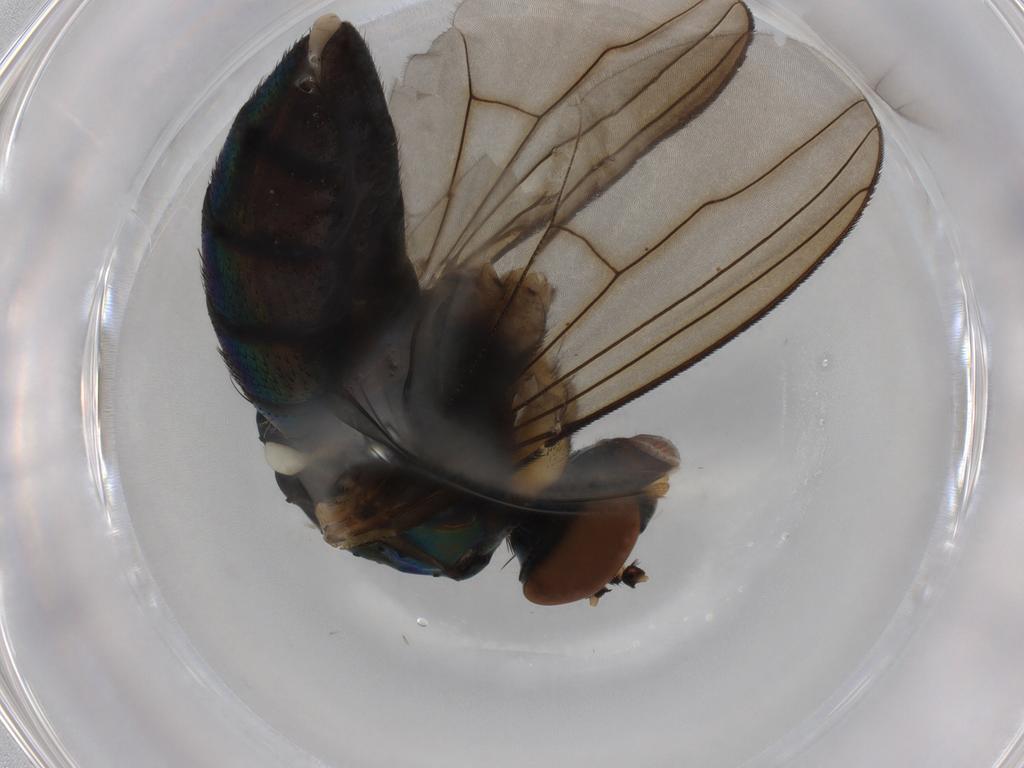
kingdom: Animalia
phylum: Arthropoda
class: Insecta
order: Diptera
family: Dolichopodidae
